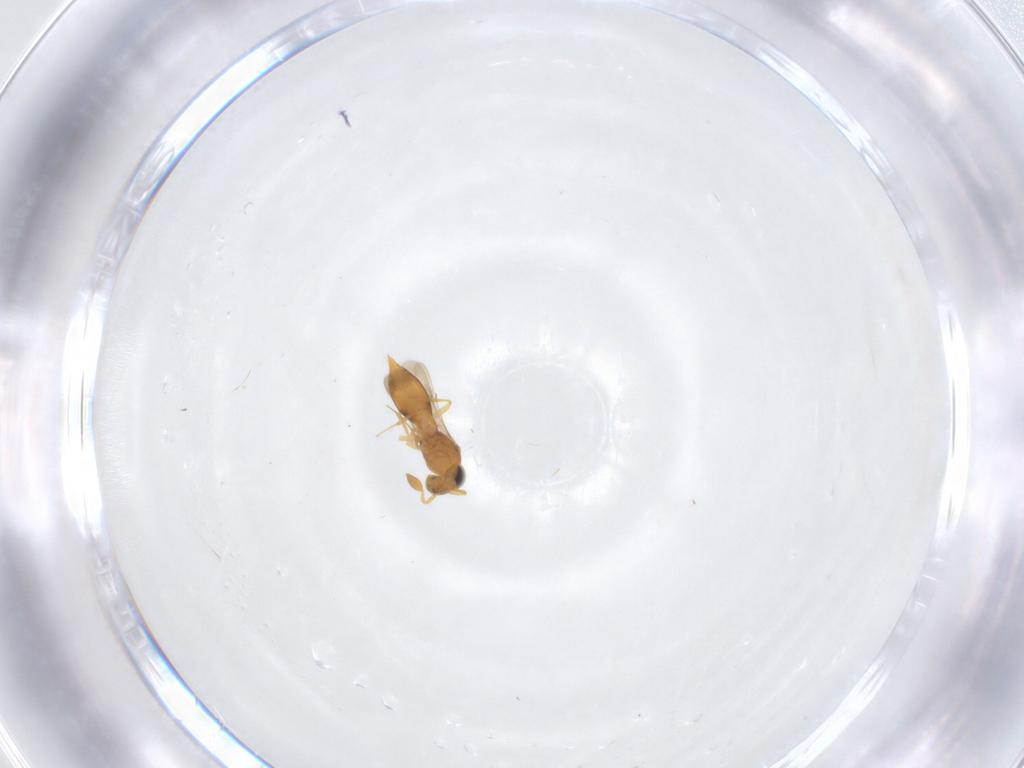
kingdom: Animalia
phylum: Arthropoda
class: Insecta
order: Hymenoptera
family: Scelionidae
